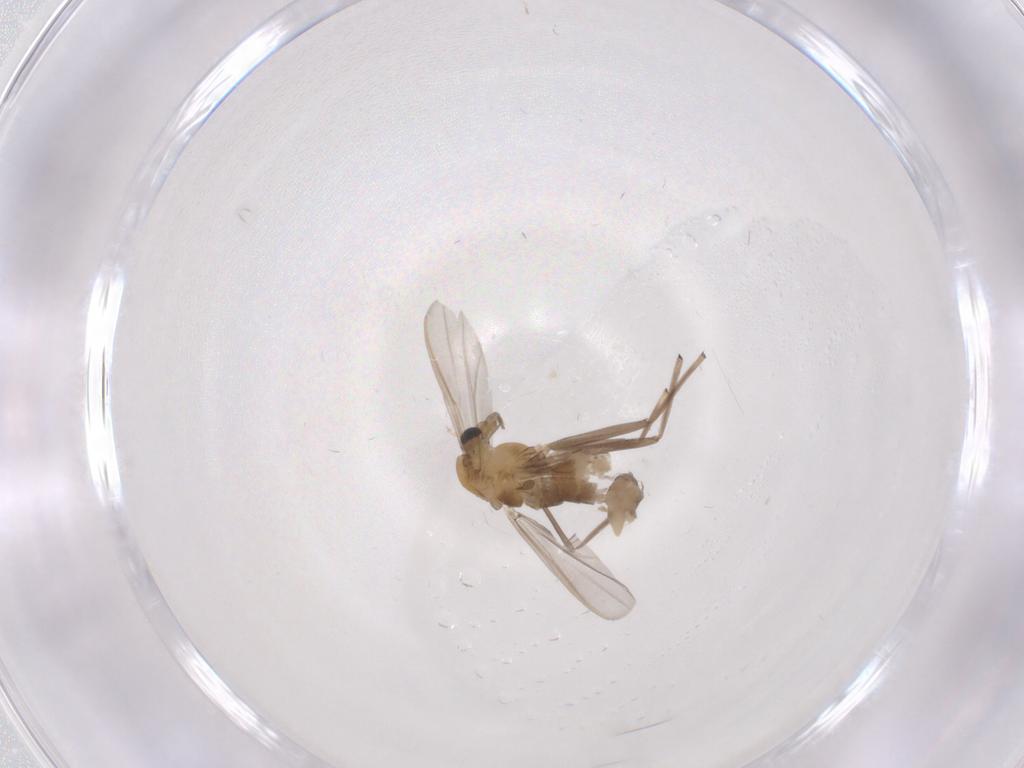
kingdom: Animalia
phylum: Arthropoda
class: Insecta
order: Diptera
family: Chironomidae
